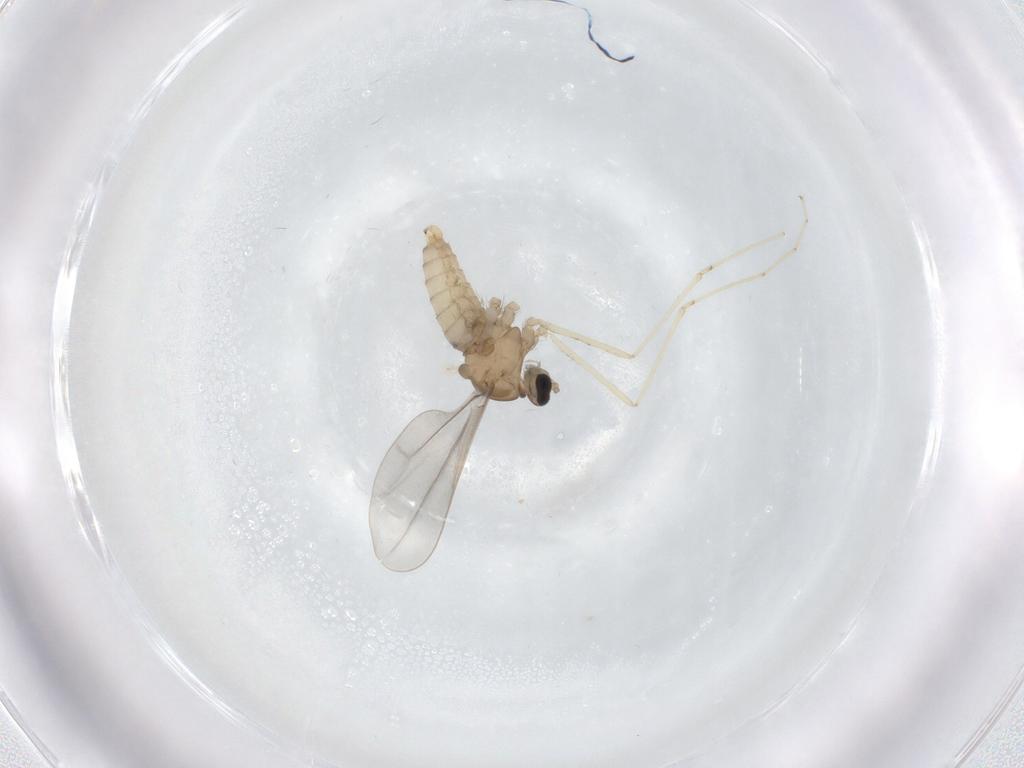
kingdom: Animalia
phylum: Arthropoda
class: Insecta
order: Diptera
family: Cecidomyiidae
